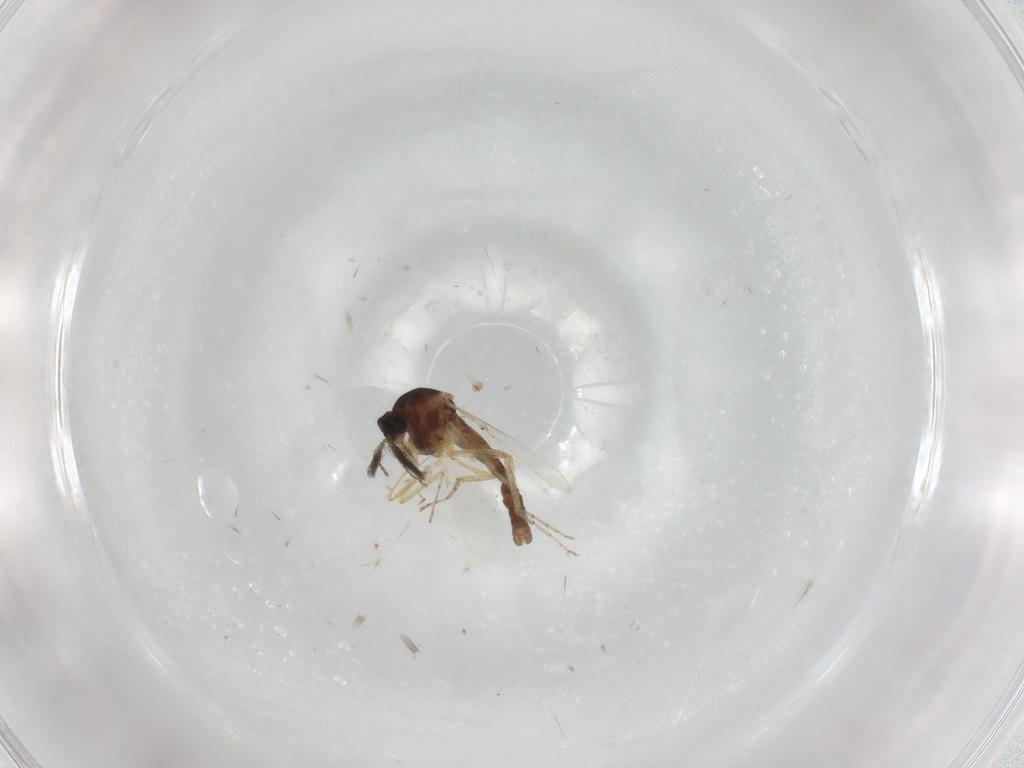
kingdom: Animalia
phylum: Arthropoda
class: Insecta
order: Diptera
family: Ceratopogonidae
